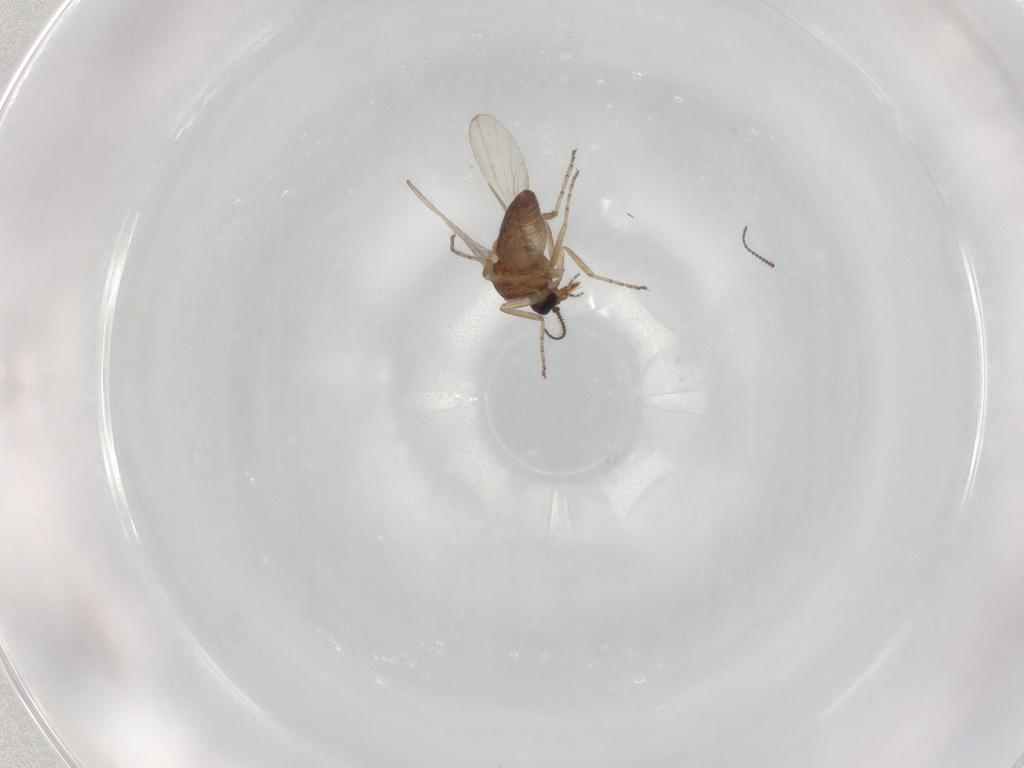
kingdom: Animalia
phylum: Arthropoda
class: Insecta
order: Diptera
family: Ceratopogonidae
